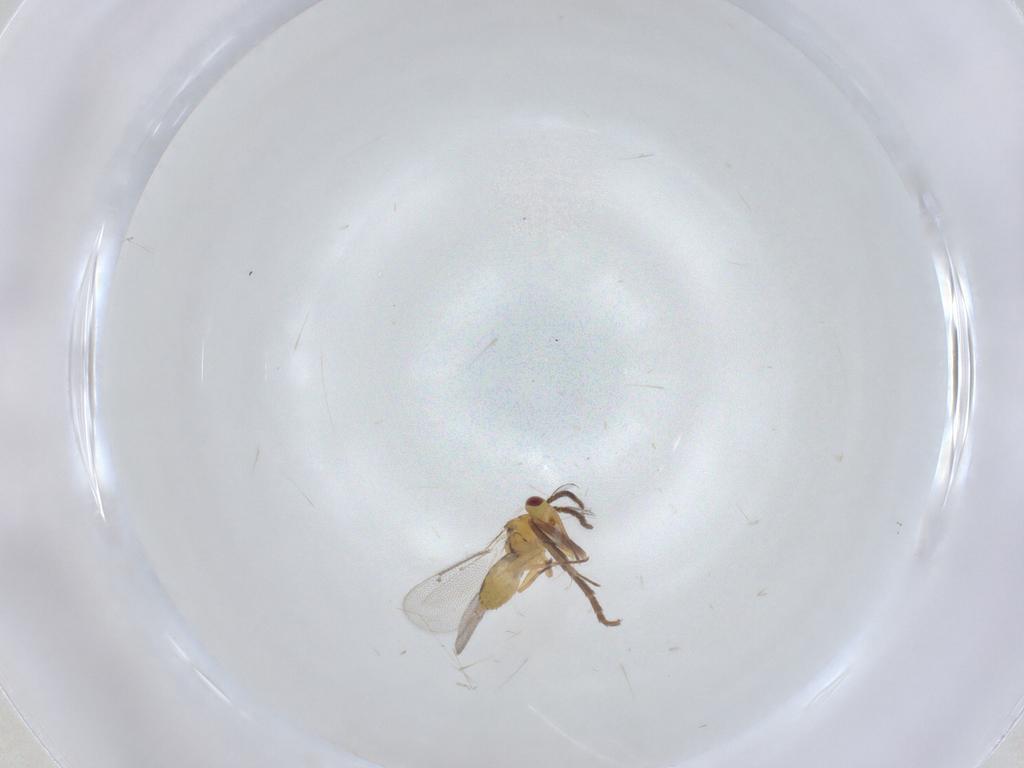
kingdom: Animalia
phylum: Arthropoda
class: Insecta
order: Hymenoptera
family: Eulophidae
